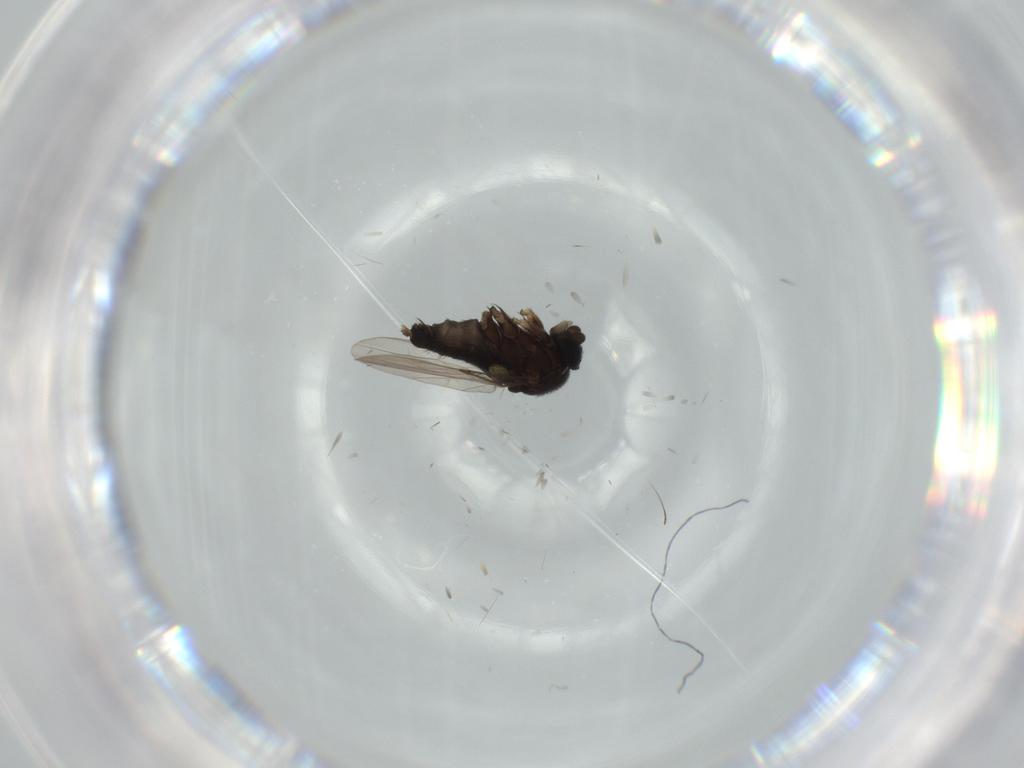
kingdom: Animalia
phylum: Arthropoda
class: Insecta
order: Diptera
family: Phoridae
